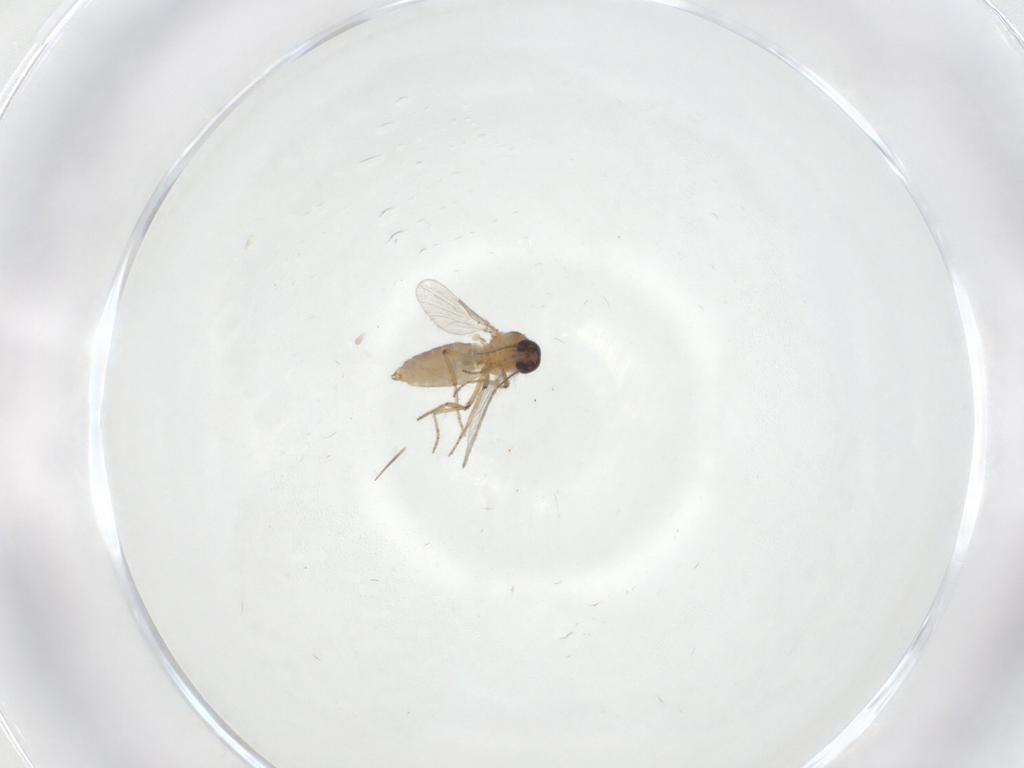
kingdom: Animalia
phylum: Arthropoda
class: Insecta
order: Diptera
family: Ceratopogonidae
